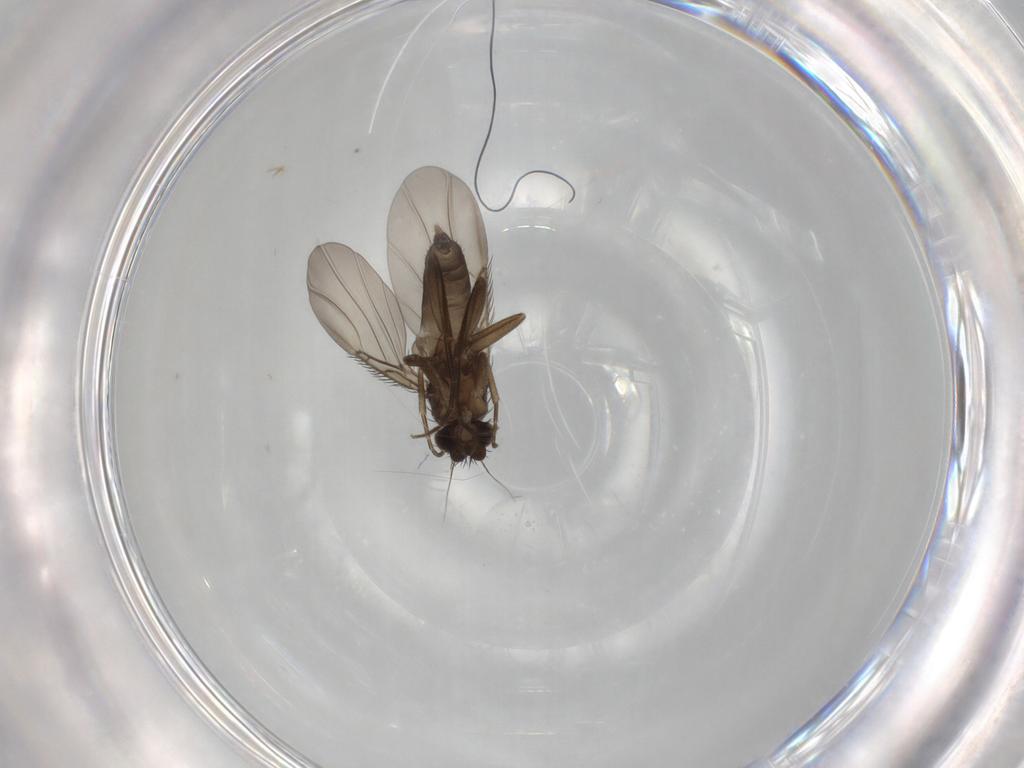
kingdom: Animalia
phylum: Arthropoda
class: Insecta
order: Diptera
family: Phoridae
